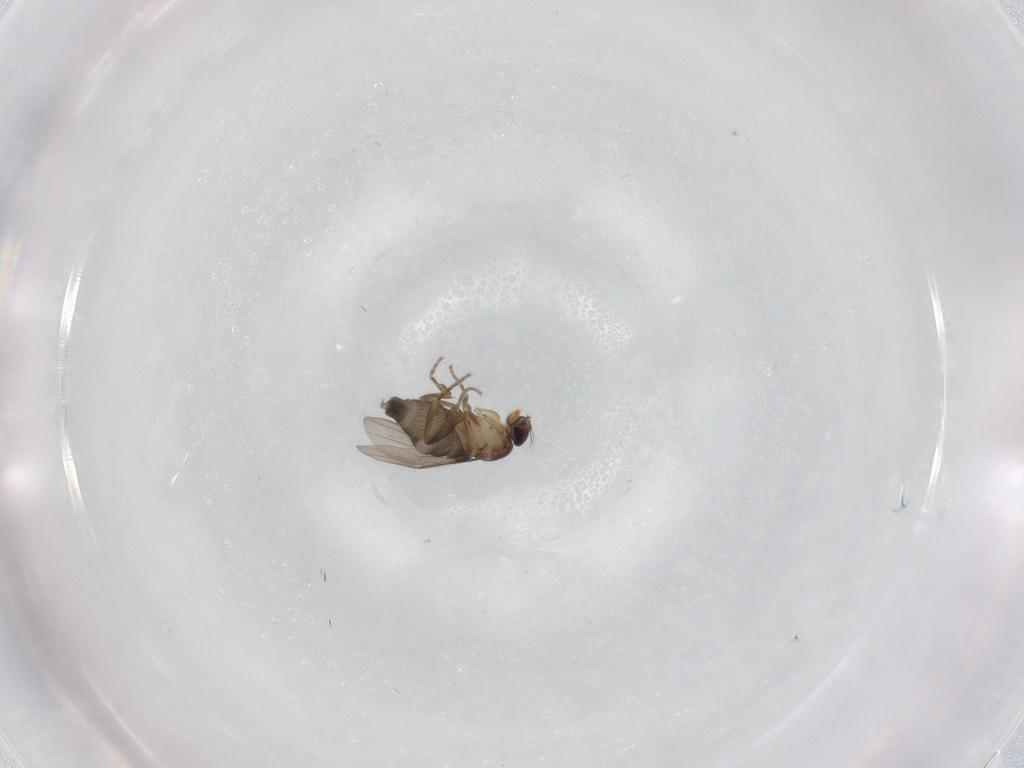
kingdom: Animalia
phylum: Arthropoda
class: Insecta
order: Diptera
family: Phoridae
